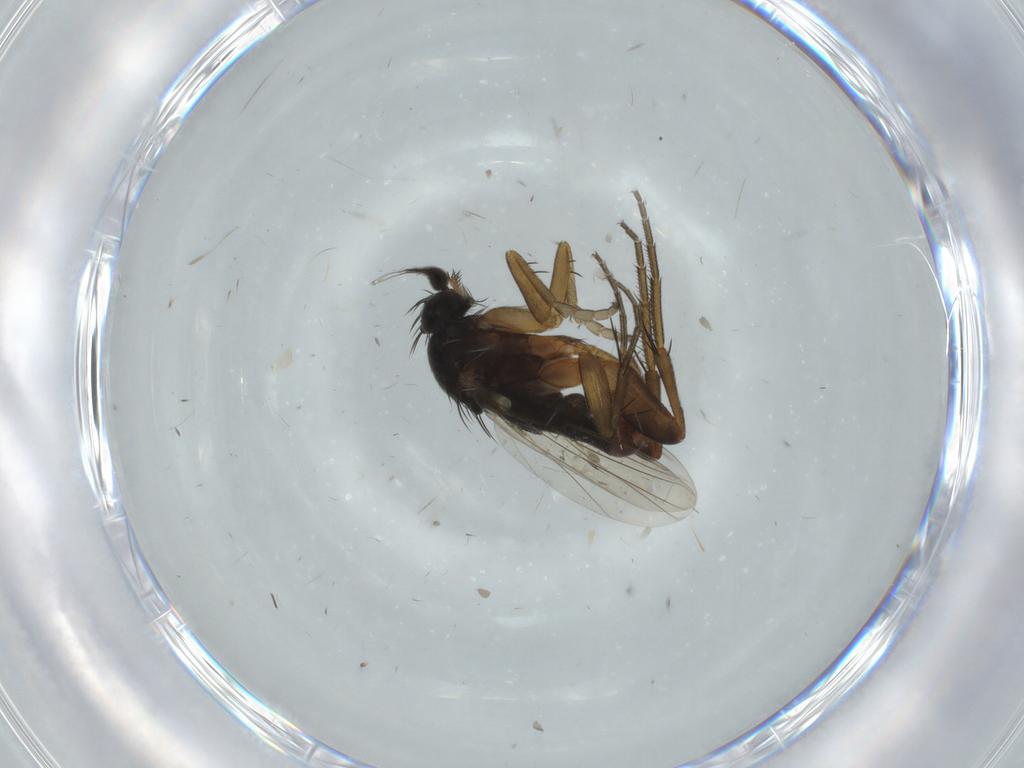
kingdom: Animalia
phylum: Arthropoda
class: Insecta
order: Diptera
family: Phoridae
